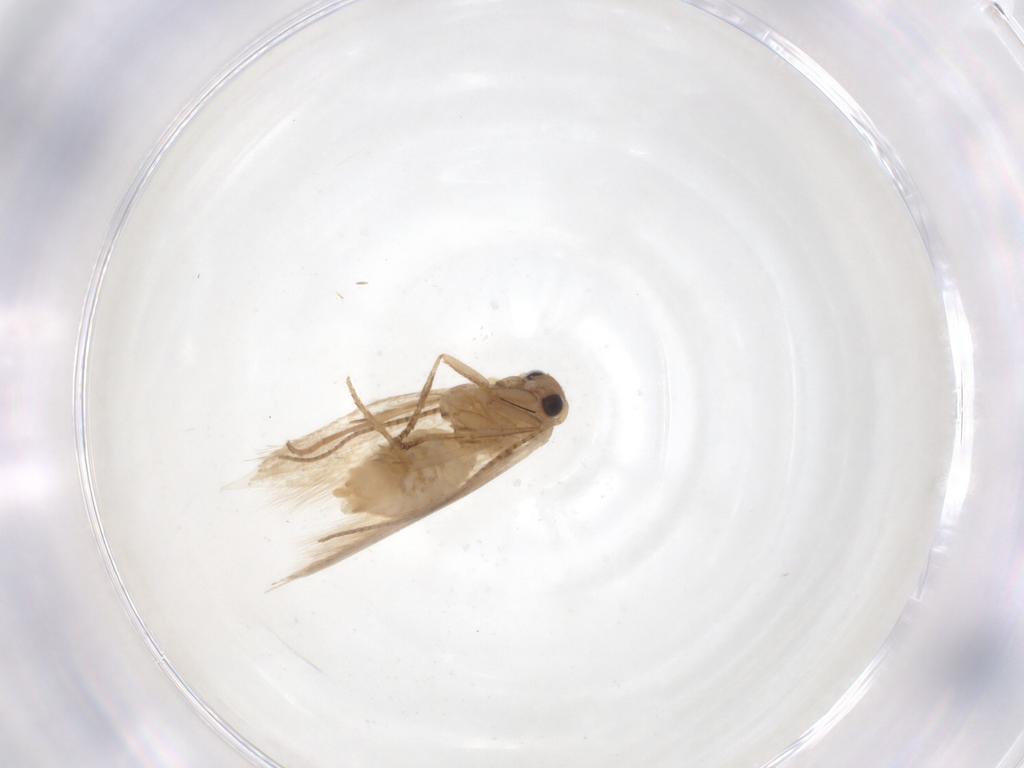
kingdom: Animalia
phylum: Arthropoda
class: Insecta
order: Lepidoptera
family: Bucculatricidae
